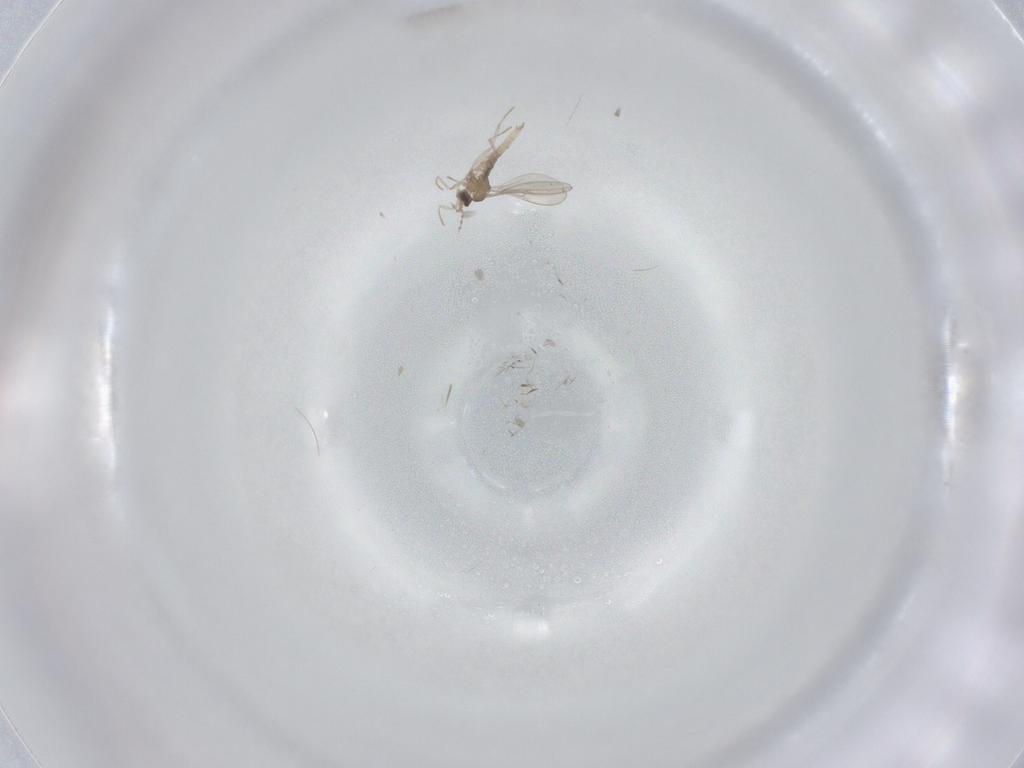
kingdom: Animalia
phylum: Arthropoda
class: Insecta
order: Diptera
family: Cecidomyiidae
